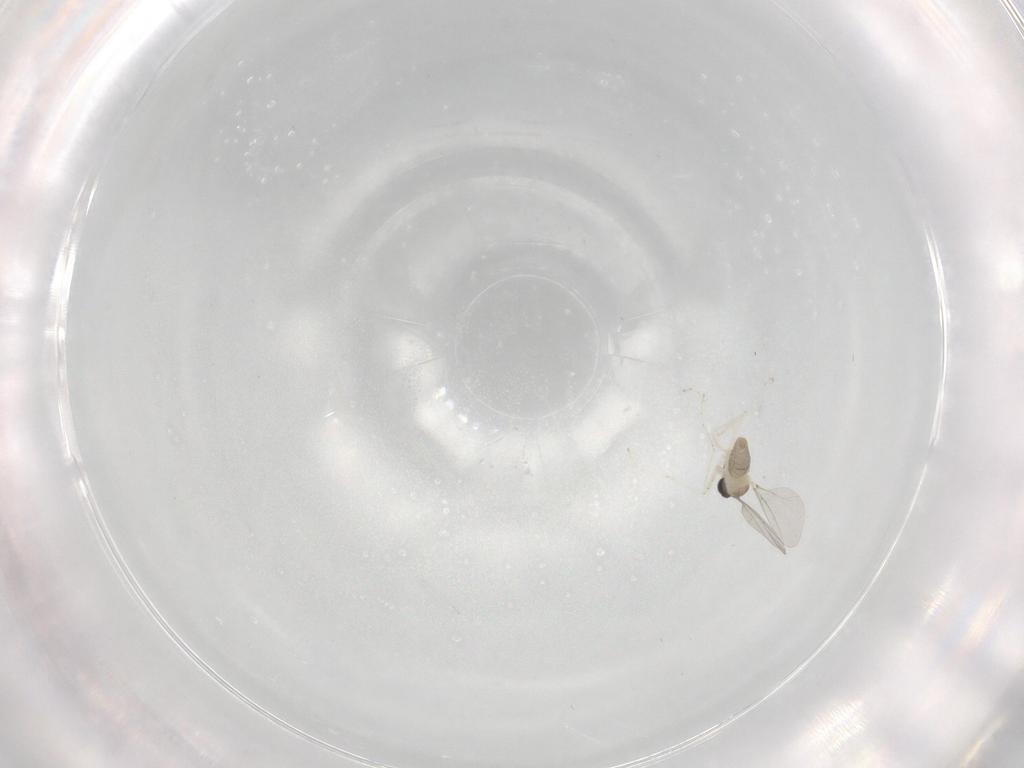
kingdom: Animalia
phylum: Arthropoda
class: Insecta
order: Diptera
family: Cecidomyiidae
